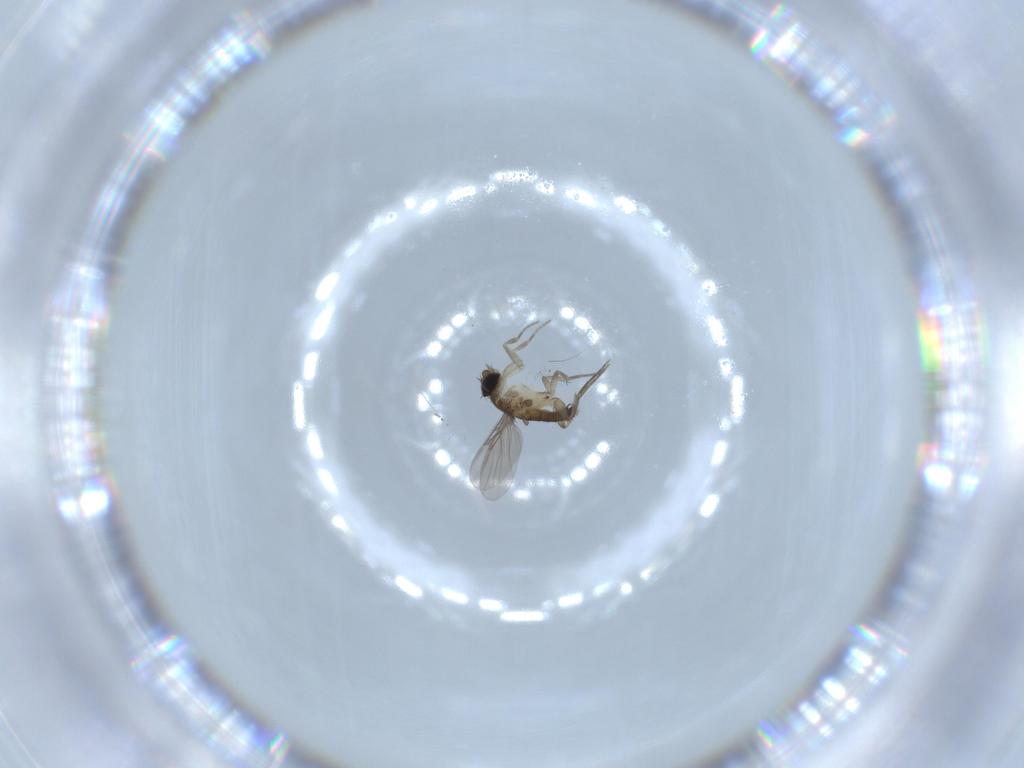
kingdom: Animalia
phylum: Arthropoda
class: Insecta
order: Diptera
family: Phoridae
